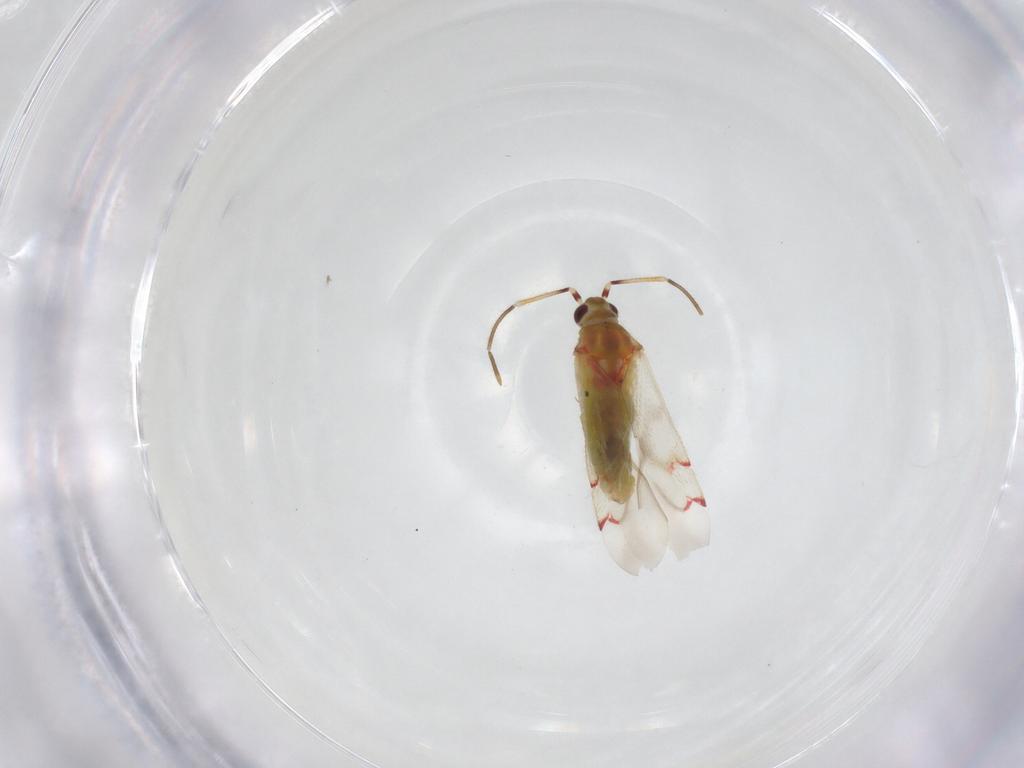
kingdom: Animalia
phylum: Arthropoda
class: Insecta
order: Hemiptera
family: Miridae
